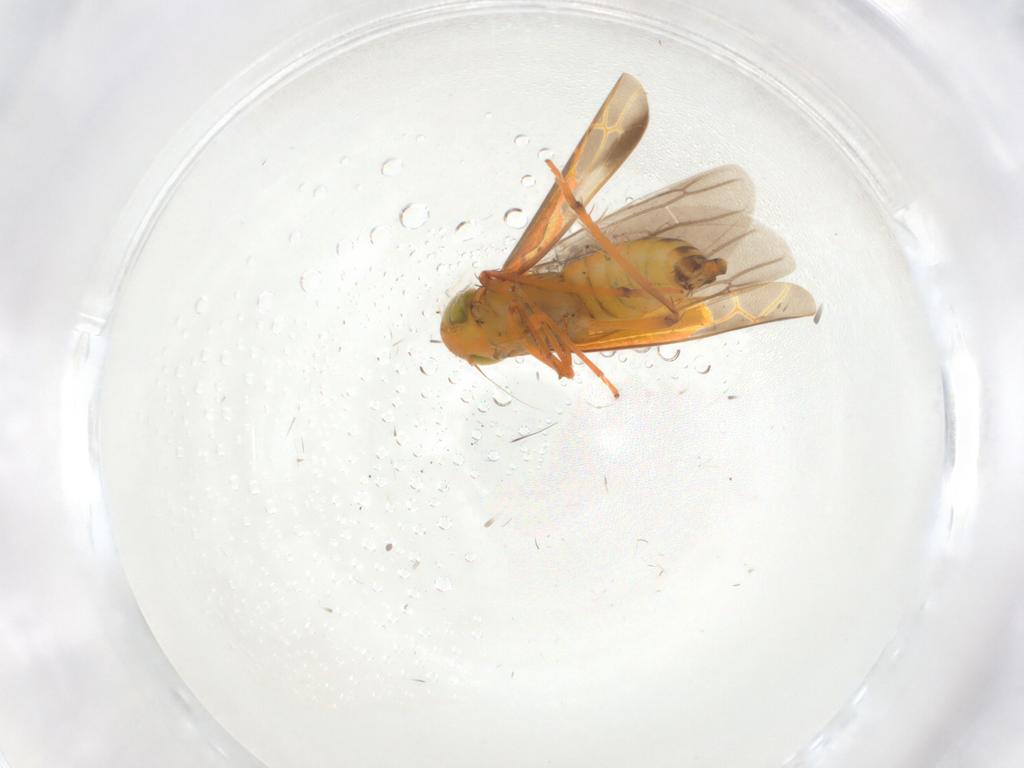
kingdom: Animalia
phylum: Arthropoda
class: Insecta
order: Hemiptera
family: Cicadellidae
